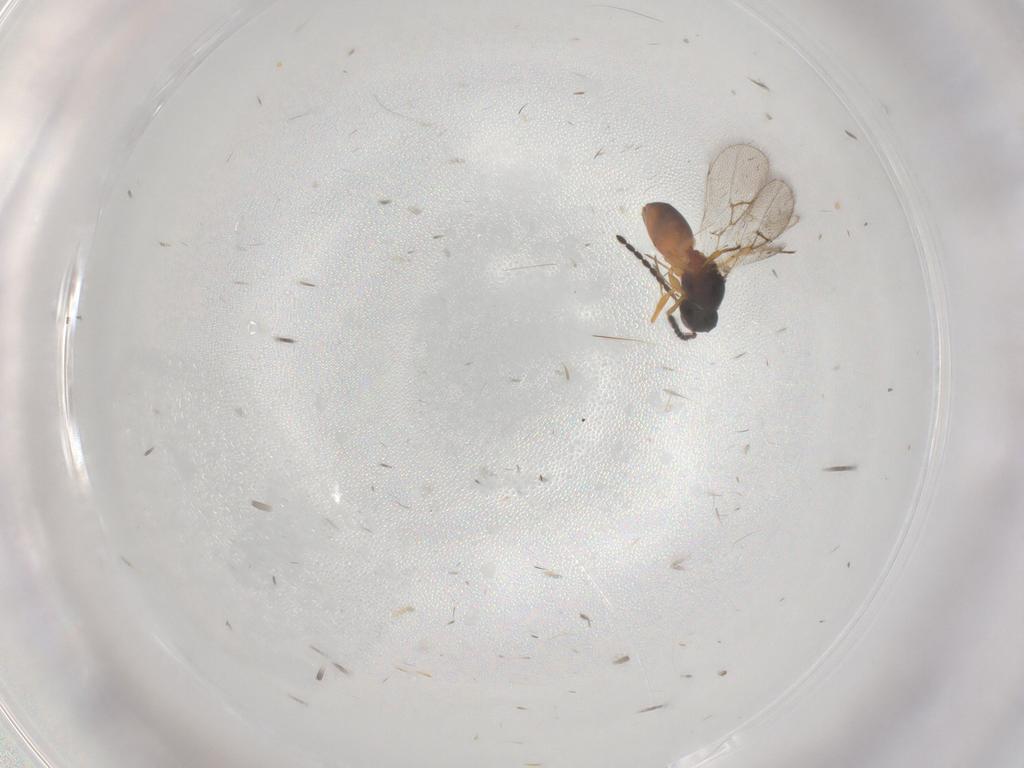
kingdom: Animalia
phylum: Arthropoda
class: Insecta
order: Hymenoptera
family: Figitidae
